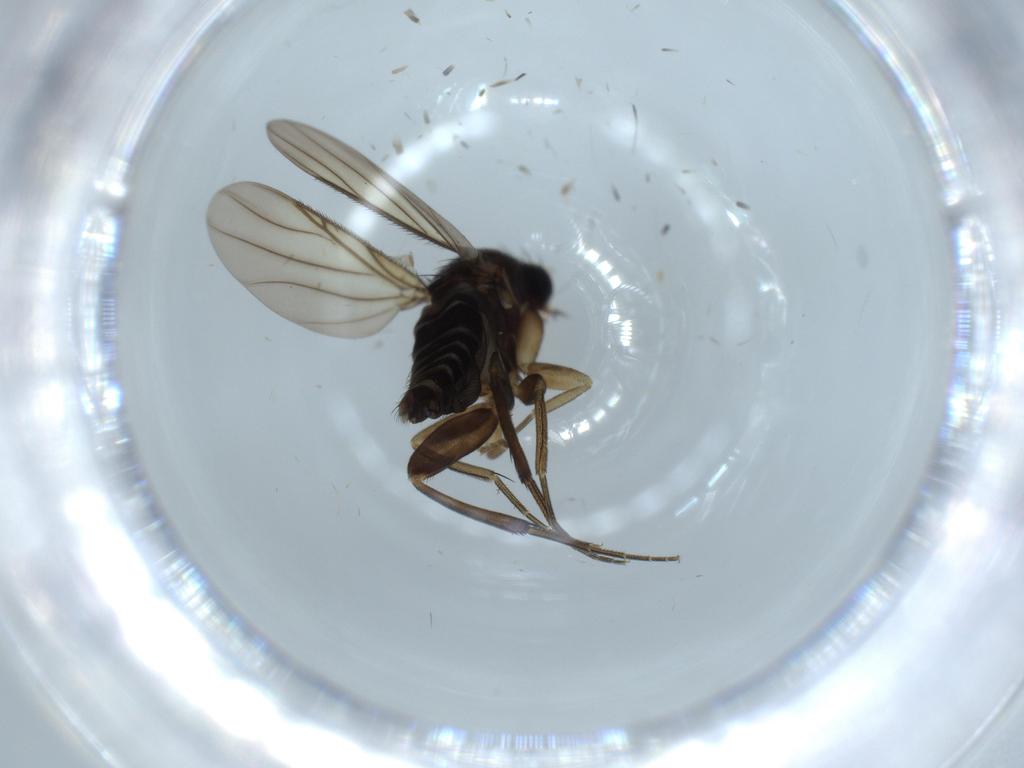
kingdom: Animalia
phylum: Arthropoda
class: Insecta
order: Diptera
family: Phoridae
